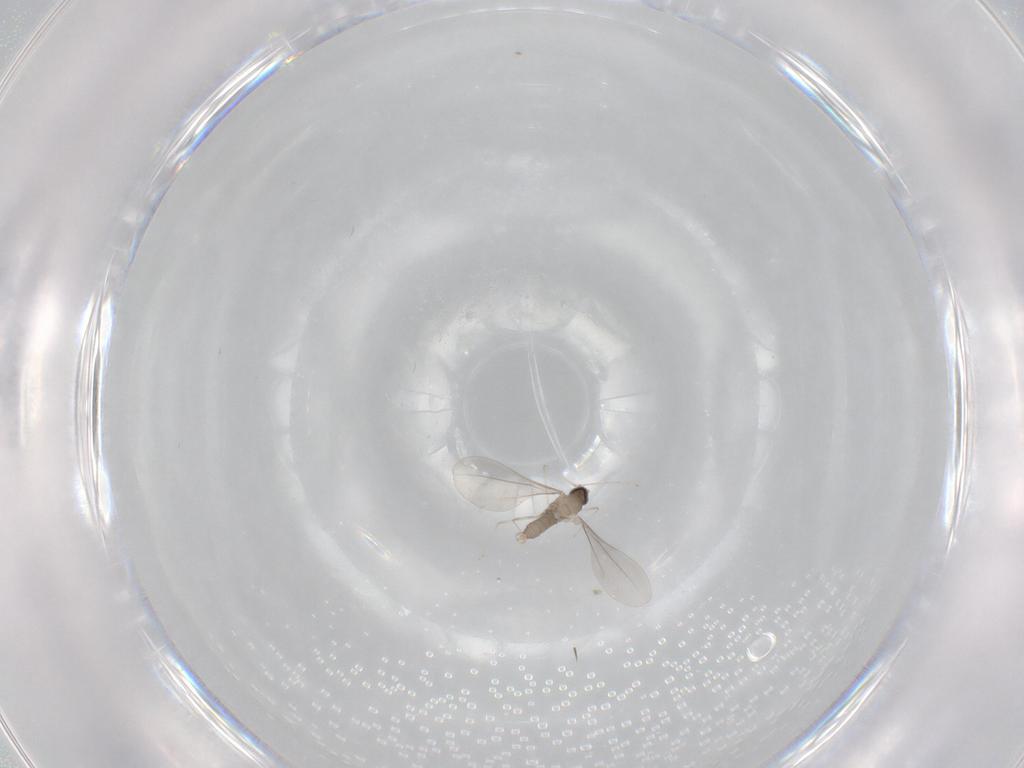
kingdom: Animalia
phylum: Arthropoda
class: Insecta
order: Diptera
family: Cecidomyiidae
